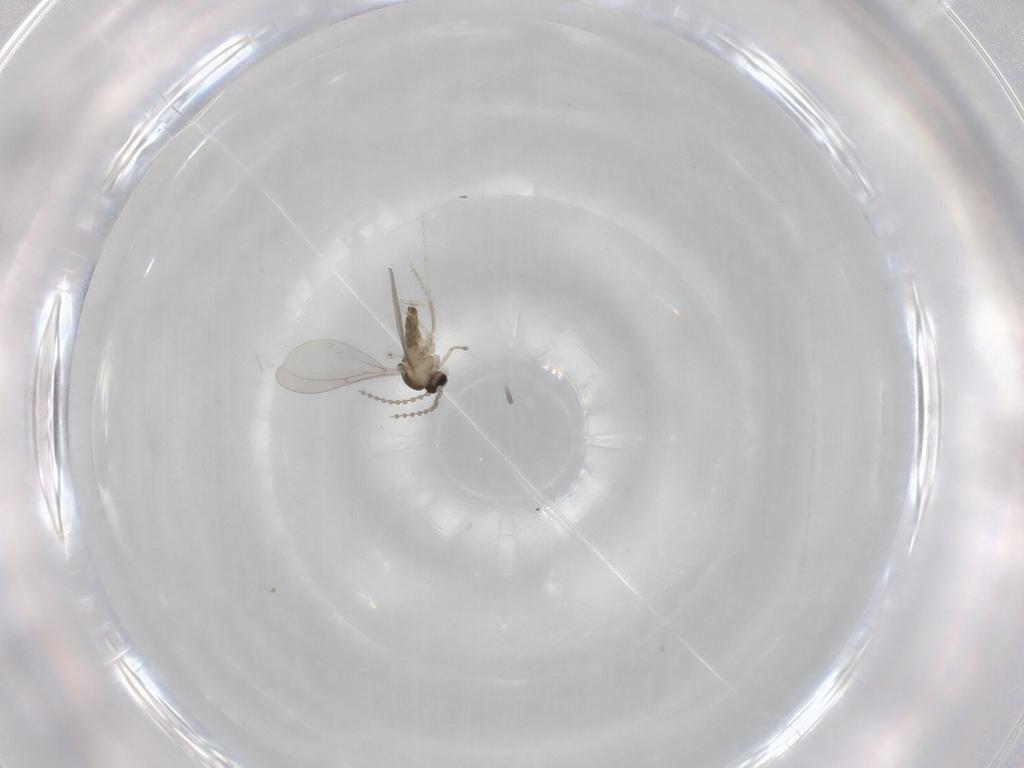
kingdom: Animalia
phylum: Arthropoda
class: Insecta
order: Diptera
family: Cecidomyiidae
